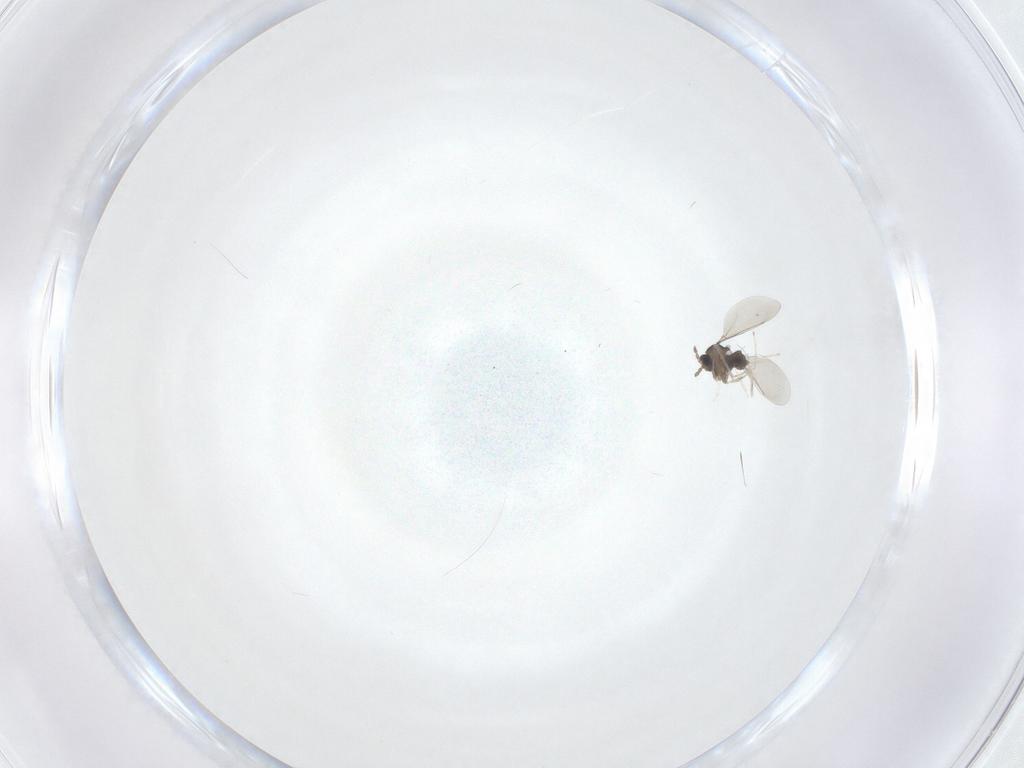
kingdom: Animalia
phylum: Arthropoda
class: Insecta
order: Diptera
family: Cecidomyiidae
